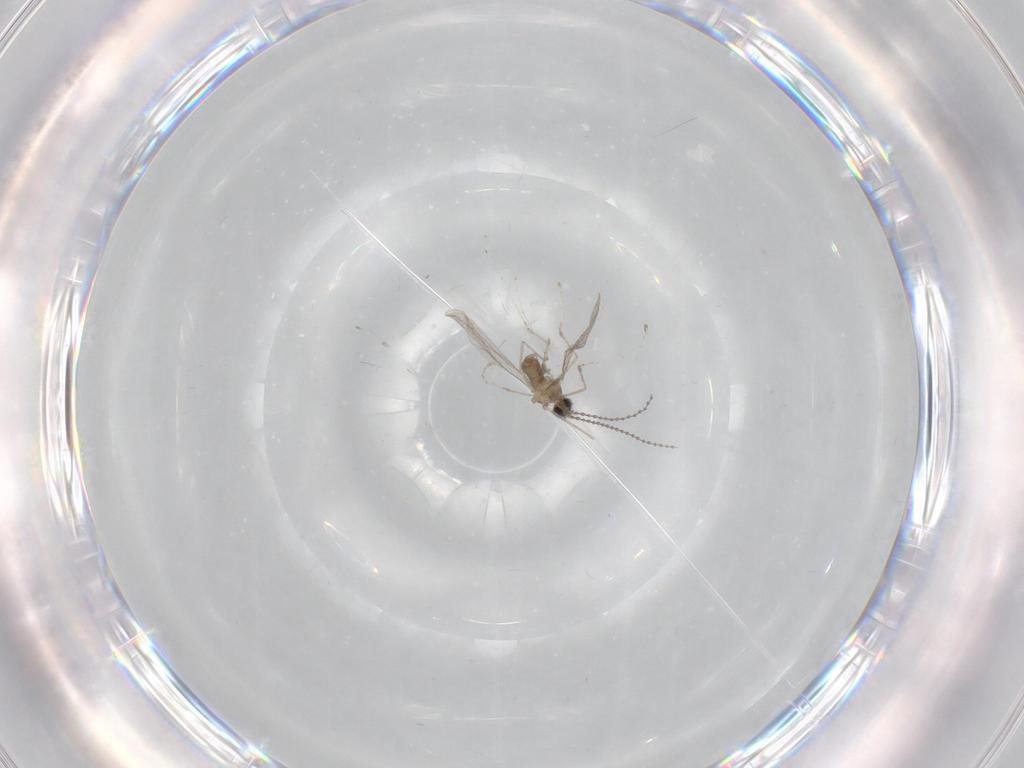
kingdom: Animalia
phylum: Arthropoda
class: Insecta
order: Diptera
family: Cecidomyiidae
